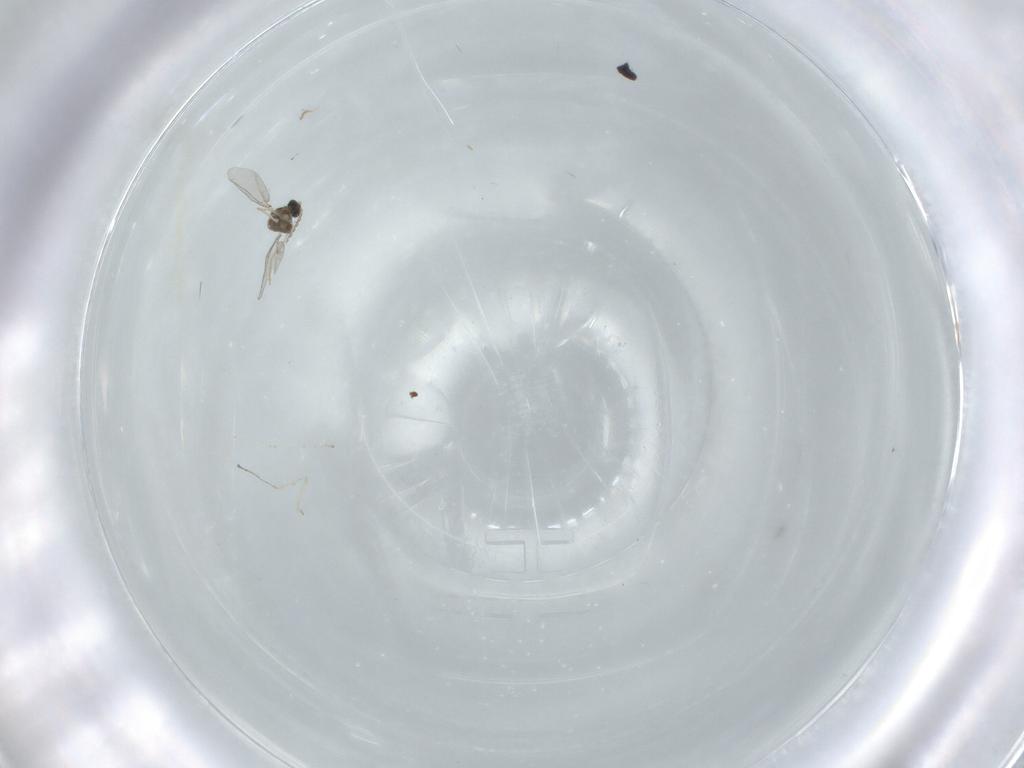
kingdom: Animalia
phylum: Arthropoda
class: Insecta
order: Diptera
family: Cecidomyiidae
